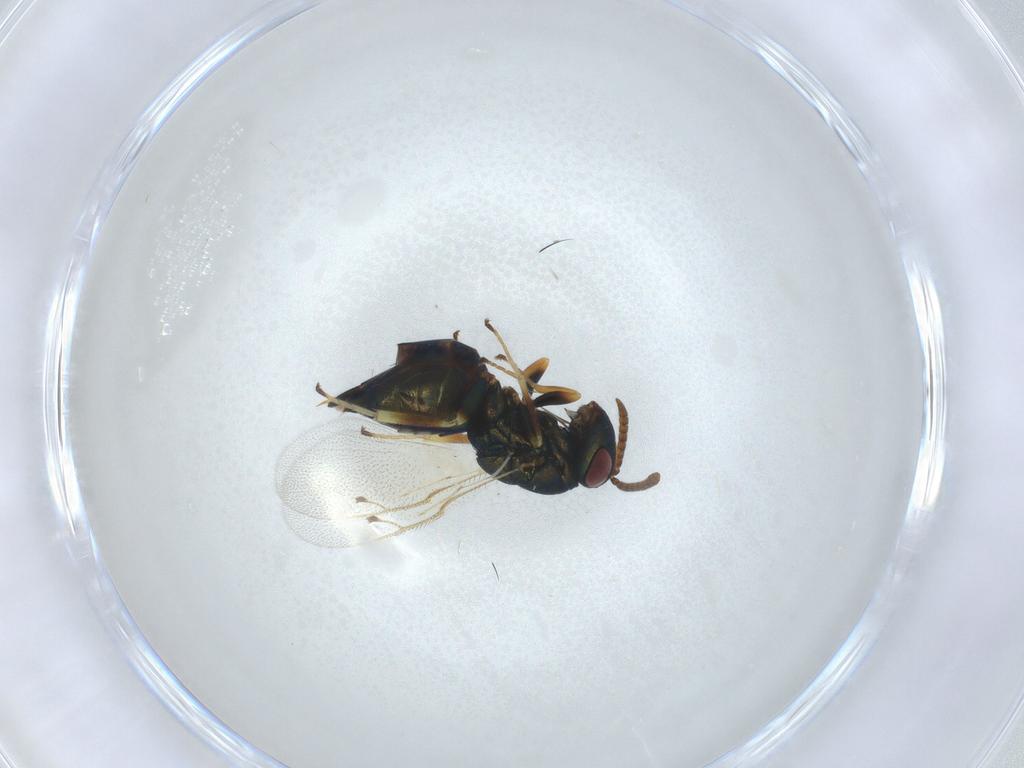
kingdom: Animalia
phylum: Arthropoda
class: Insecta
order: Hymenoptera
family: Pteromalidae
